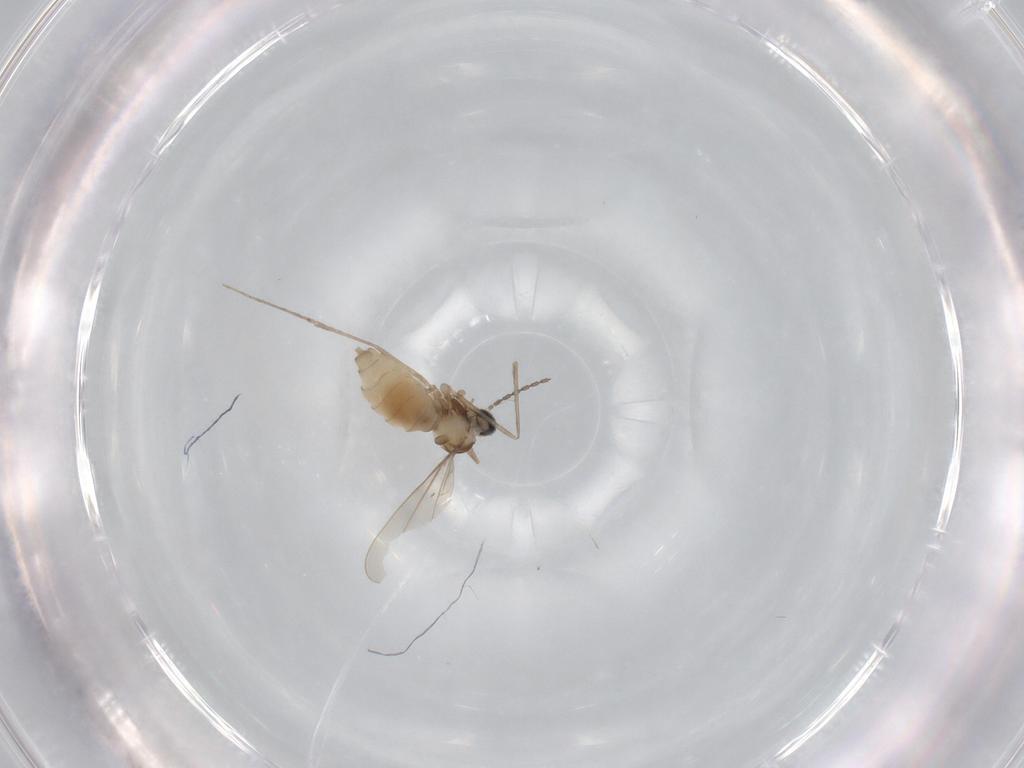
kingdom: Animalia
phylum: Arthropoda
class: Insecta
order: Diptera
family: Cecidomyiidae
